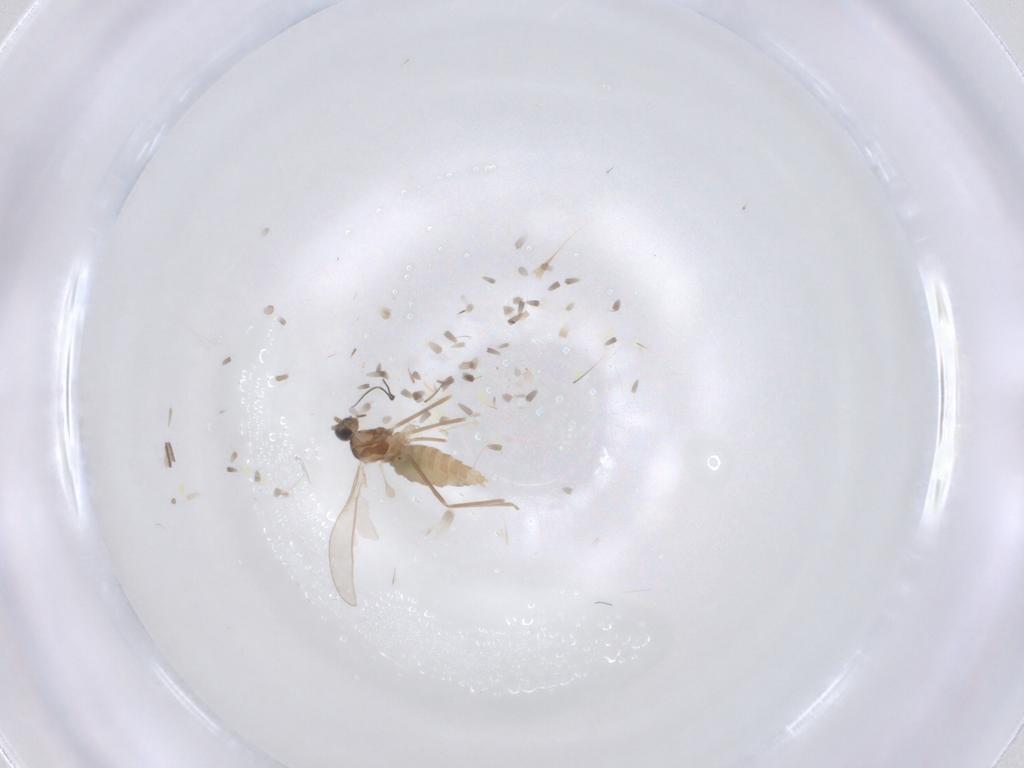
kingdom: Animalia
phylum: Arthropoda
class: Insecta
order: Diptera
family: Cecidomyiidae
